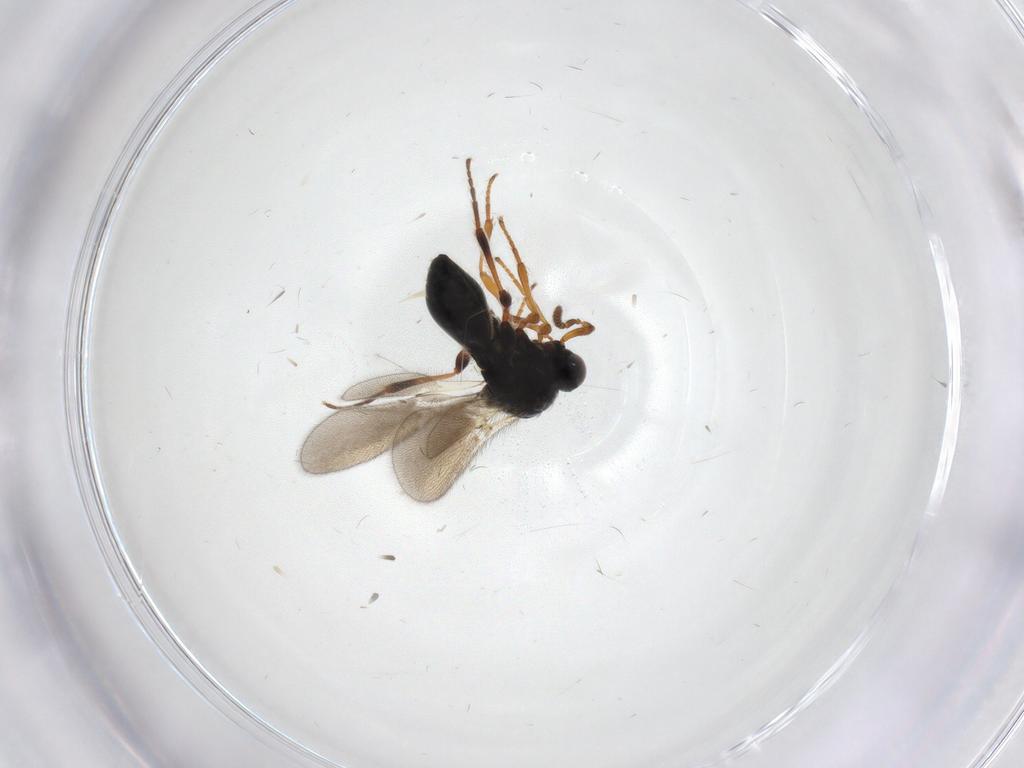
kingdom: Animalia
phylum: Arthropoda
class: Insecta
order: Hymenoptera
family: Platygastridae
